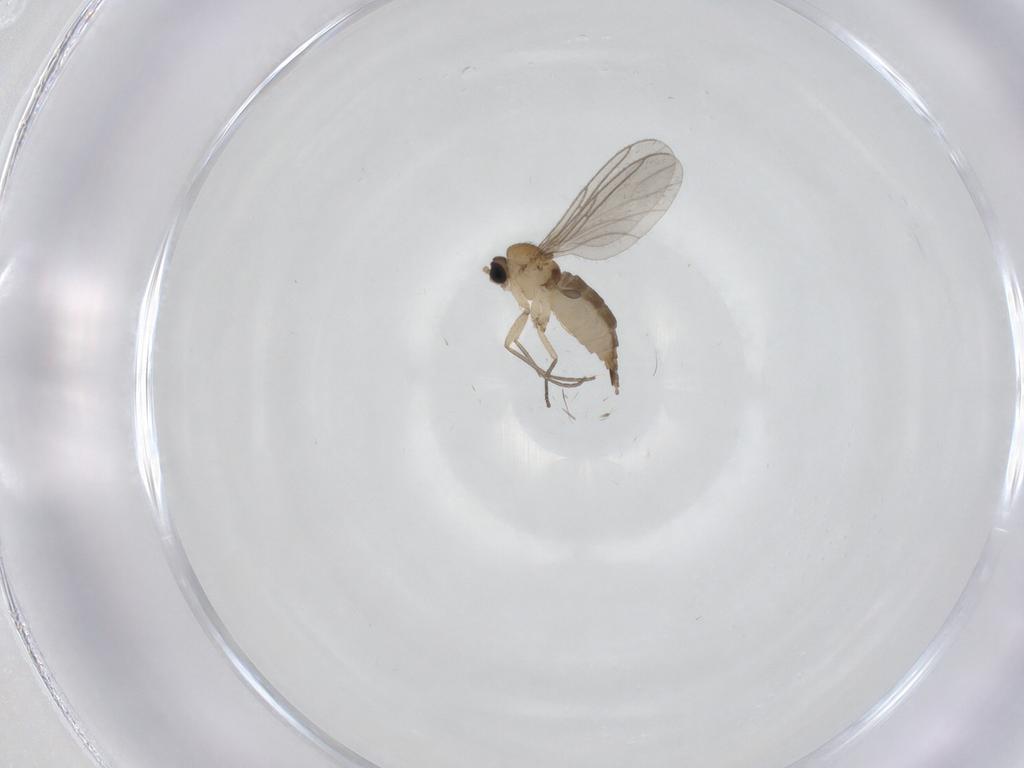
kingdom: Animalia
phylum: Arthropoda
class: Insecta
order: Diptera
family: Sciaridae
